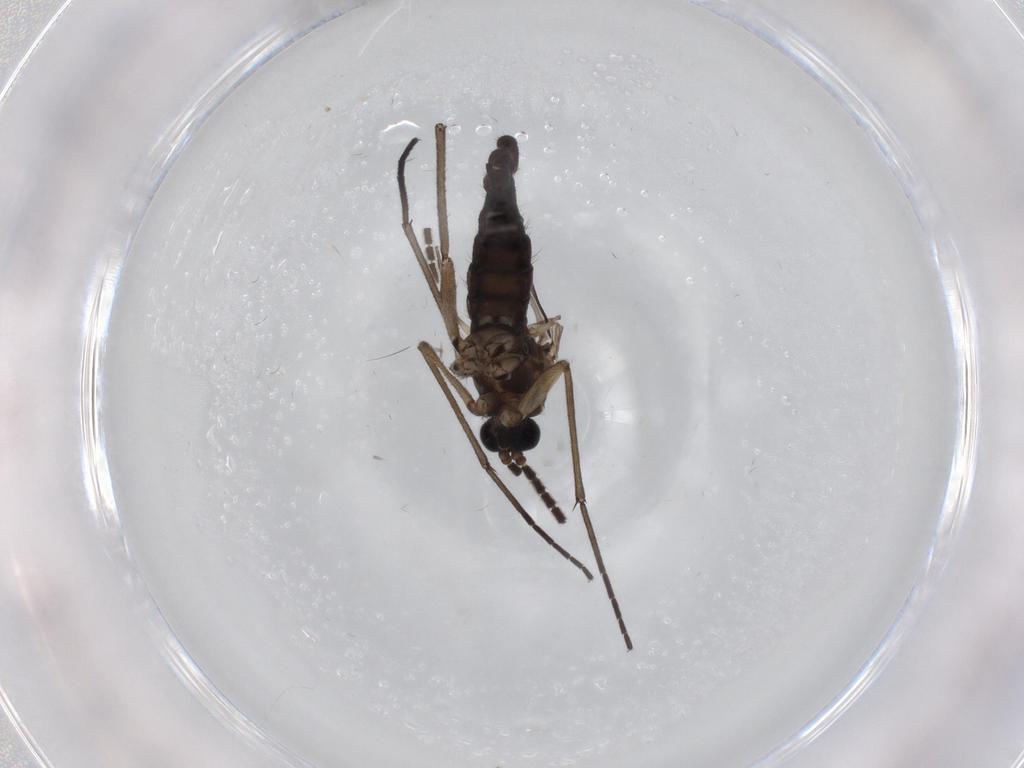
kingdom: Animalia
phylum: Arthropoda
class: Insecta
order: Diptera
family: Sciaridae
